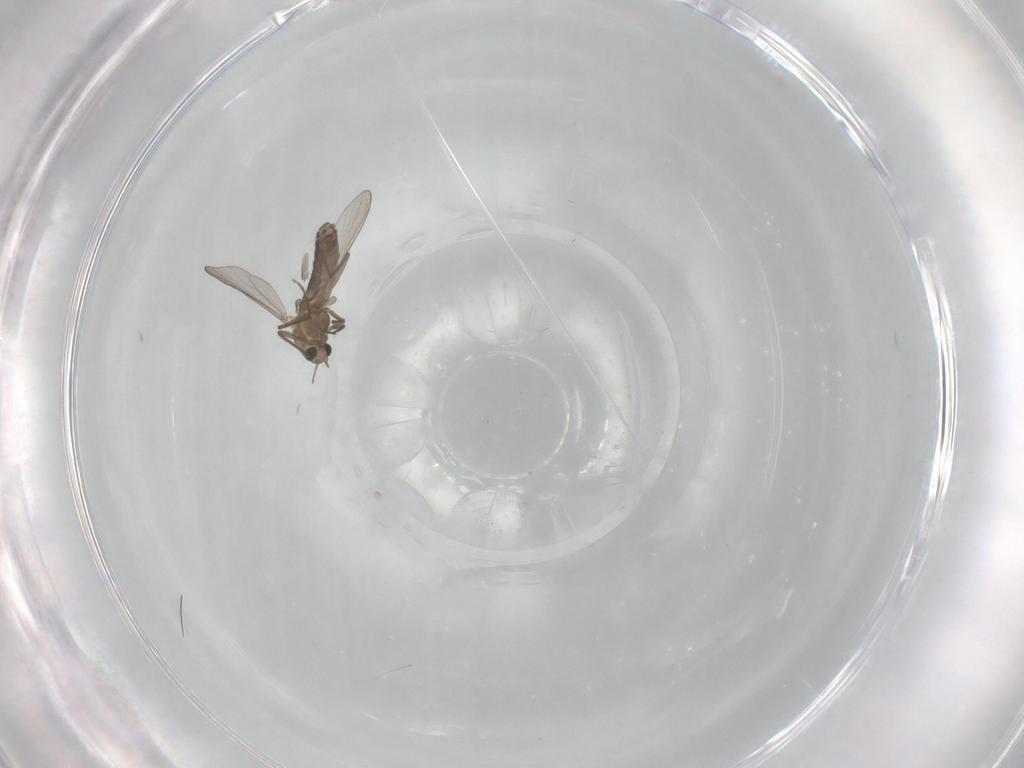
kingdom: Animalia
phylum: Arthropoda
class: Insecta
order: Diptera
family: Chironomidae
